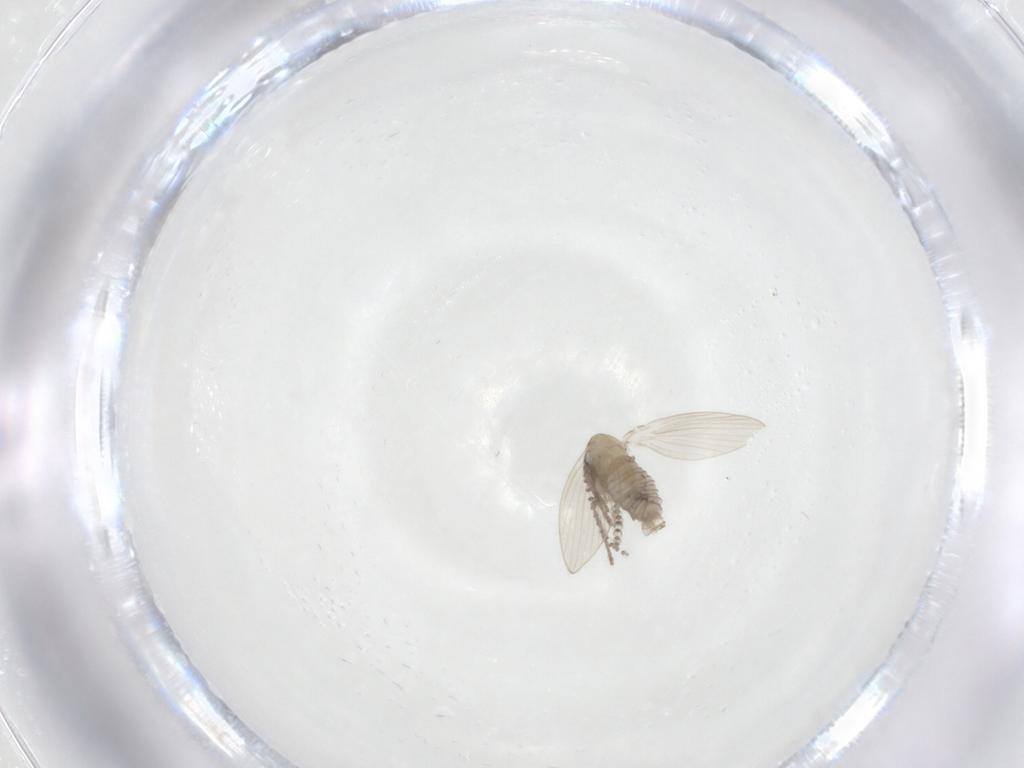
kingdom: Animalia
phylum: Arthropoda
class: Insecta
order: Diptera
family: Psychodidae
